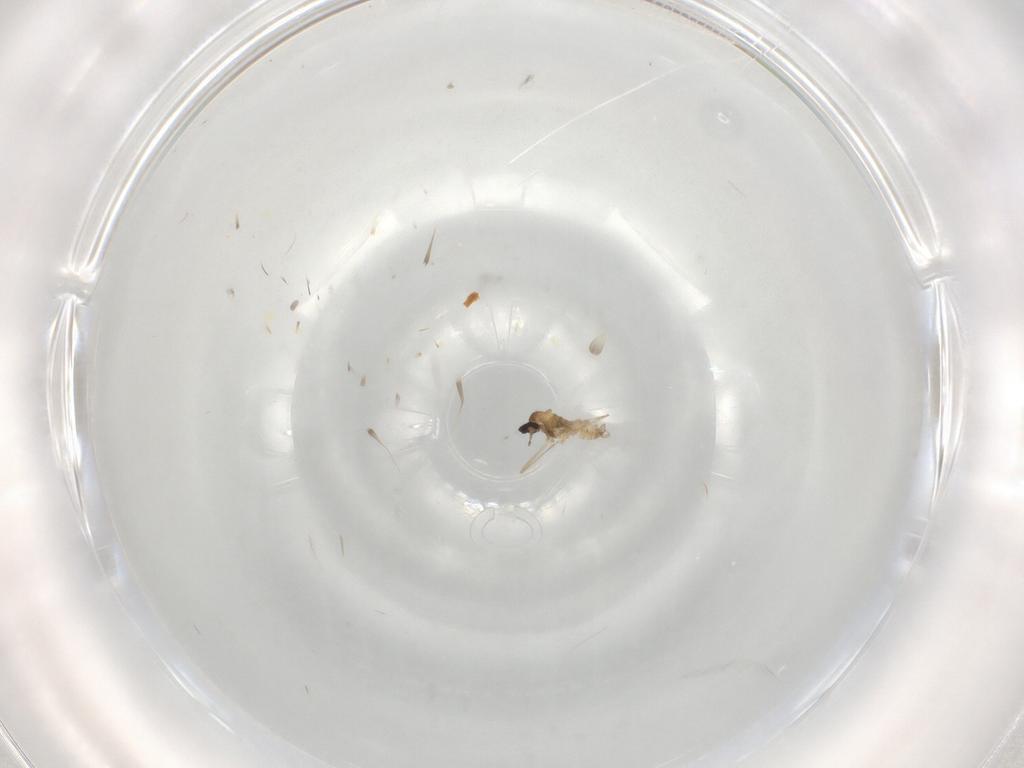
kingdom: Animalia
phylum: Arthropoda
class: Insecta
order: Diptera
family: Cecidomyiidae
